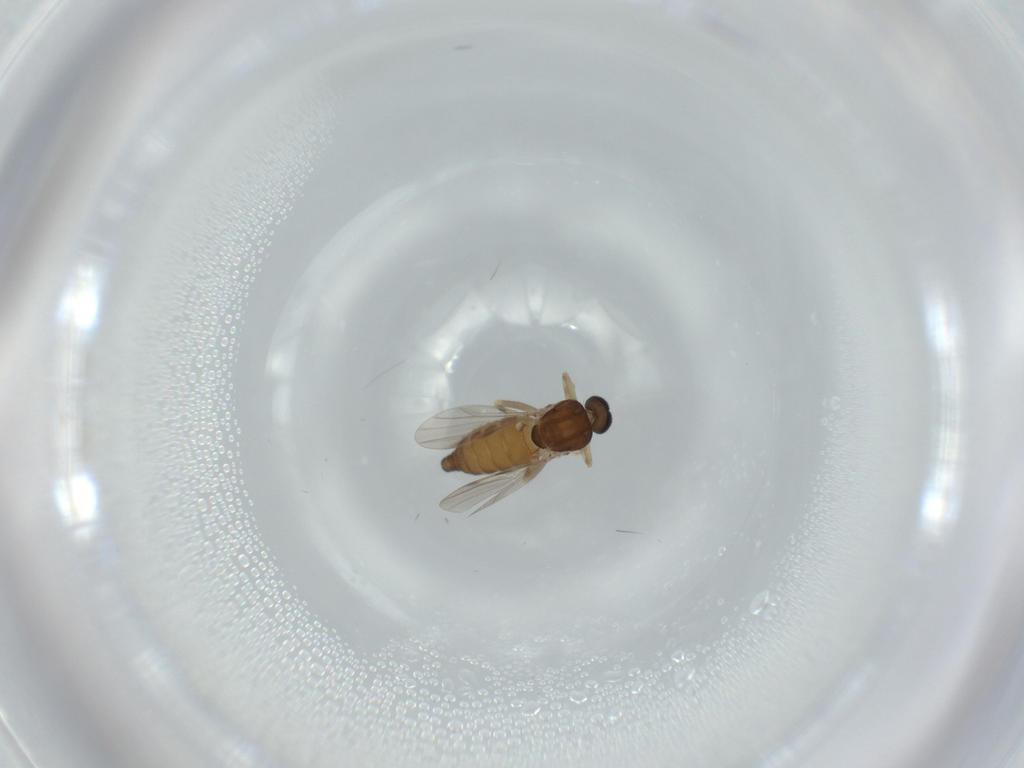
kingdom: Animalia
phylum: Arthropoda
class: Insecta
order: Diptera
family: Ceratopogonidae
